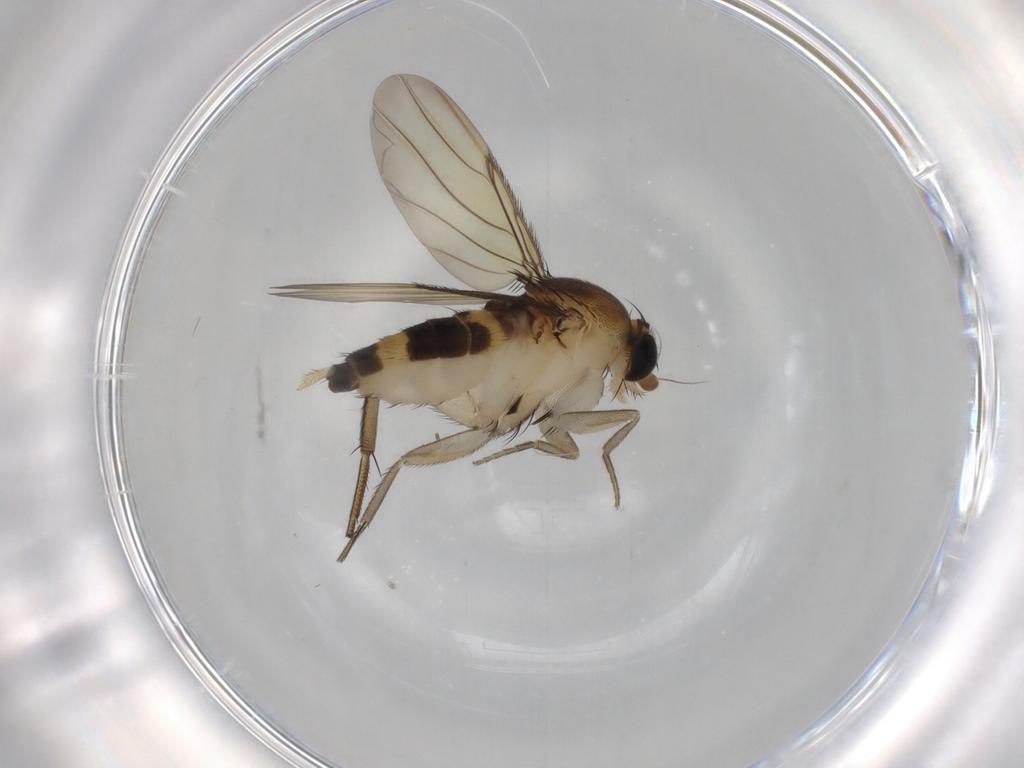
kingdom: Animalia
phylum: Arthropoda
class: Insecta
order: Diptera
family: Phoridae
